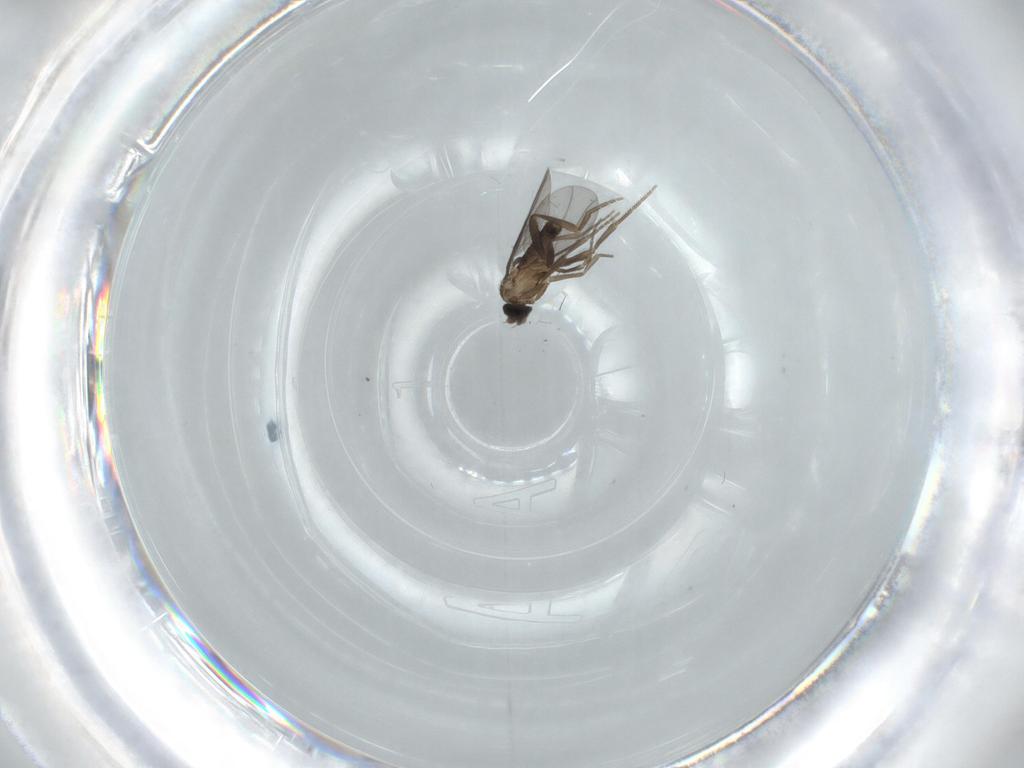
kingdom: Animalia
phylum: Arthropoda
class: Insecta
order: Diptera
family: Phoridae
